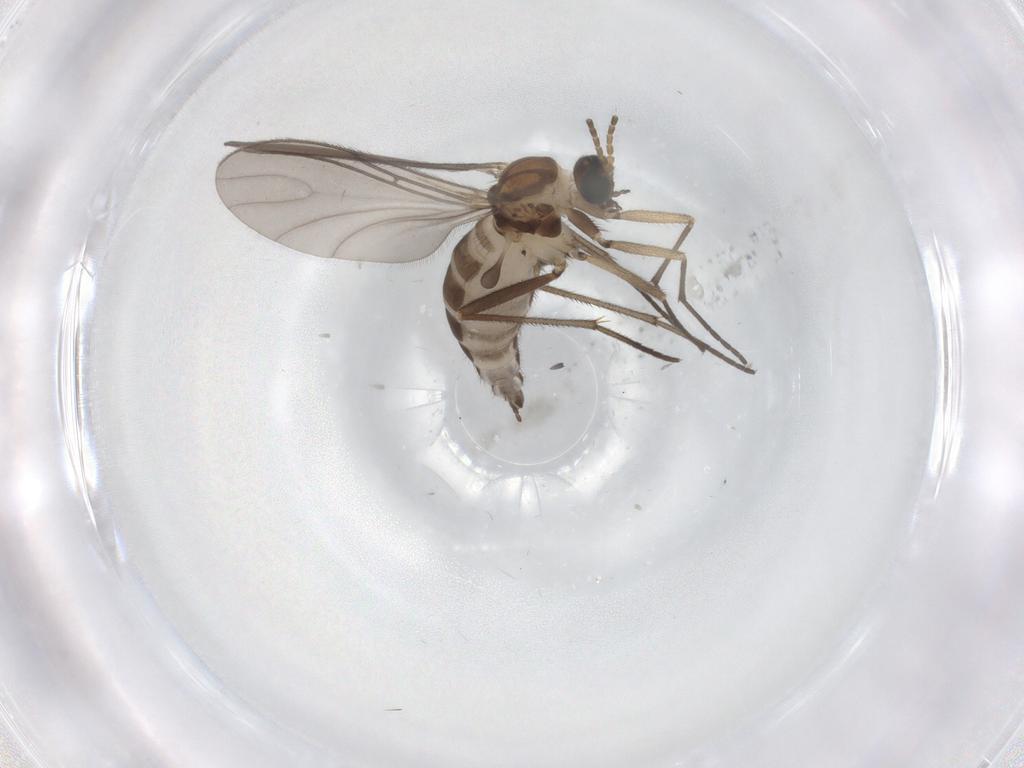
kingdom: Animalia
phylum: Arthropoda
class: Insecta
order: Diptera
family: Sciaridae
